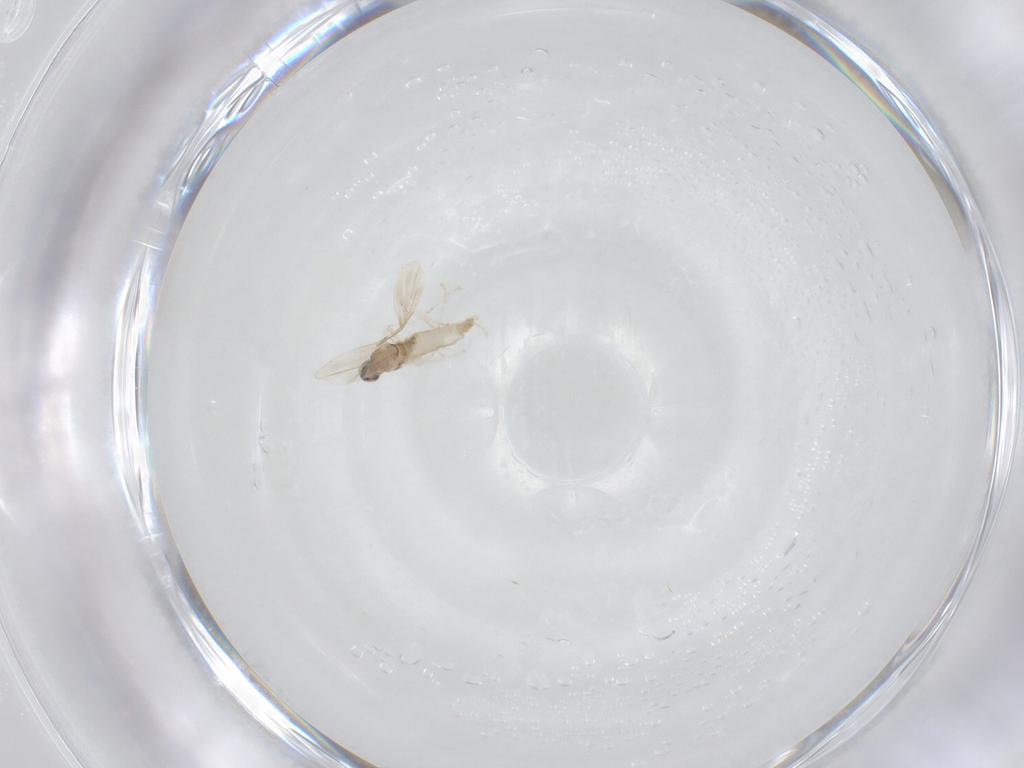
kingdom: Animalia
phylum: Arthropoda
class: Insecta
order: Diptera
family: Cecidomyiidae
